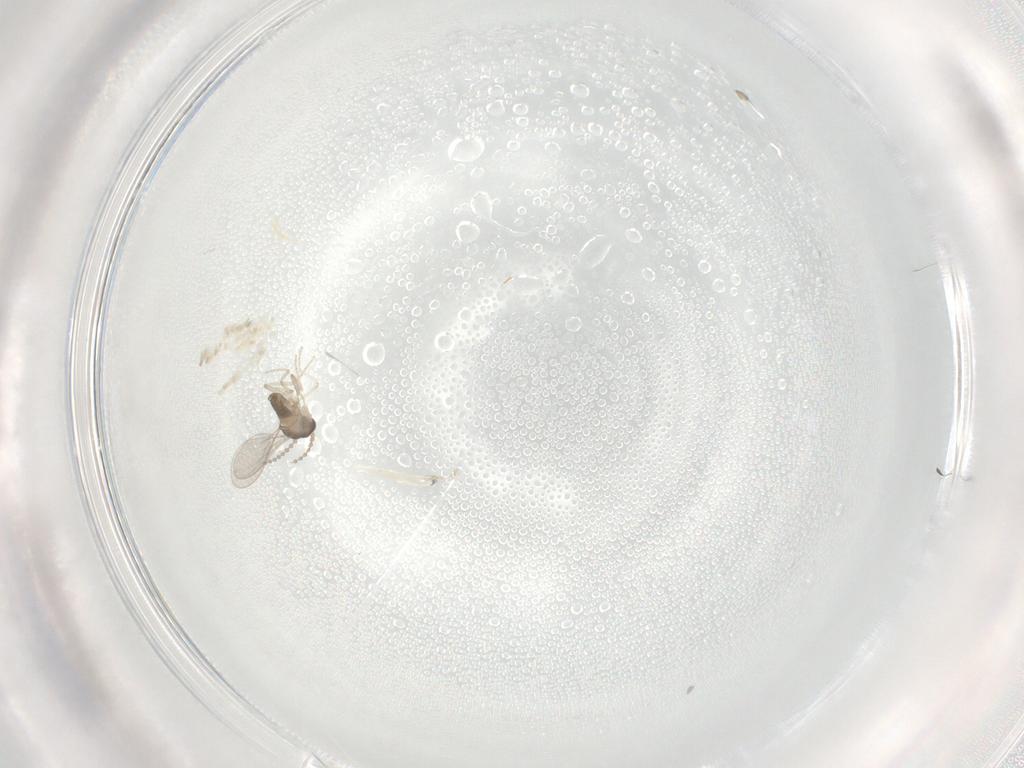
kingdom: Animalia
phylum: Arthropoda
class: Insecta
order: Diptera
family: Cecidomyiidae
